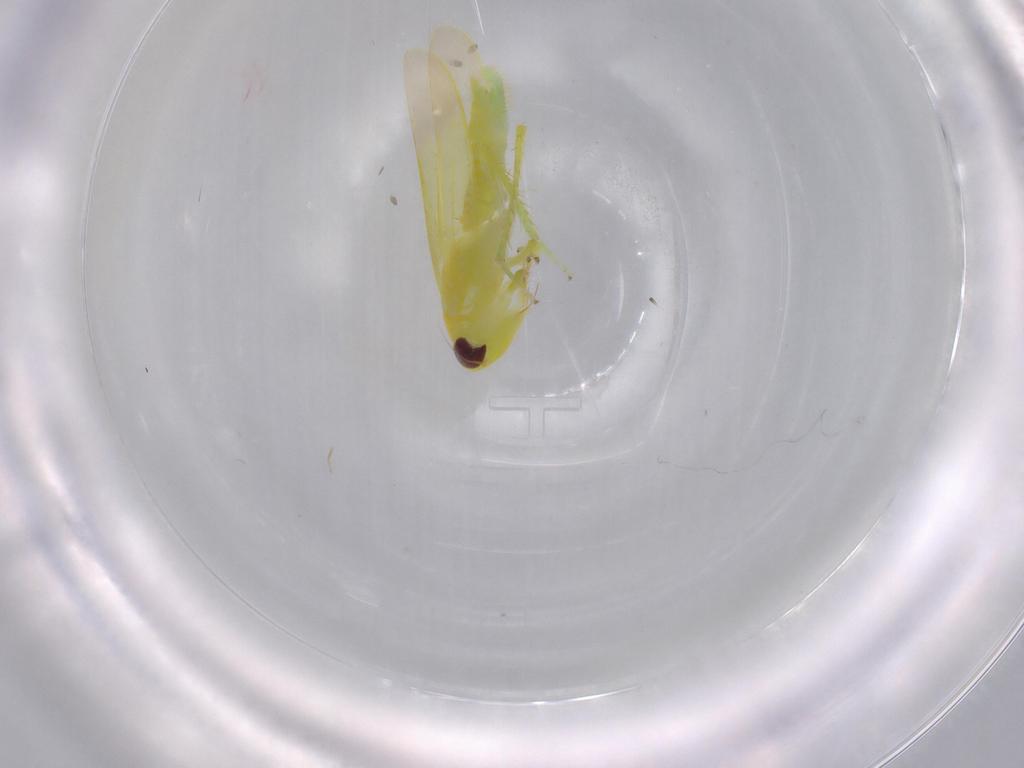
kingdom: Animalia
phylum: Arthropoda
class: Insecta
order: Hemiptera
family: Cicadellidae
